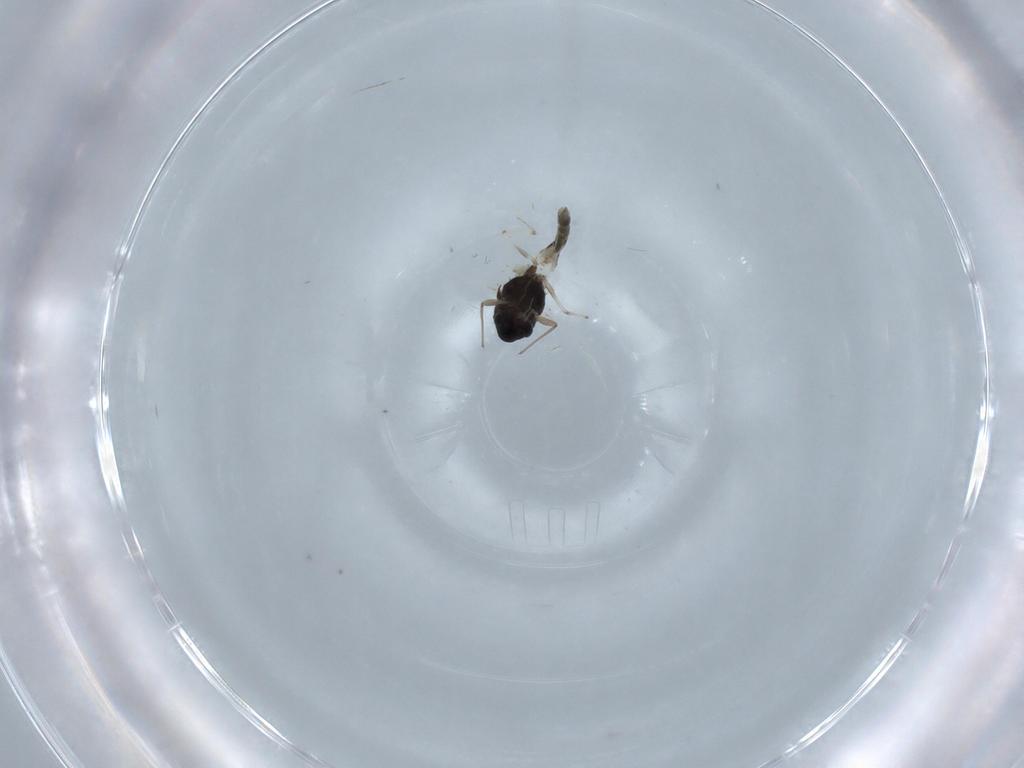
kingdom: Animalia
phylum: Arthropoda
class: Insecta
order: Diptera
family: Chironomidae
